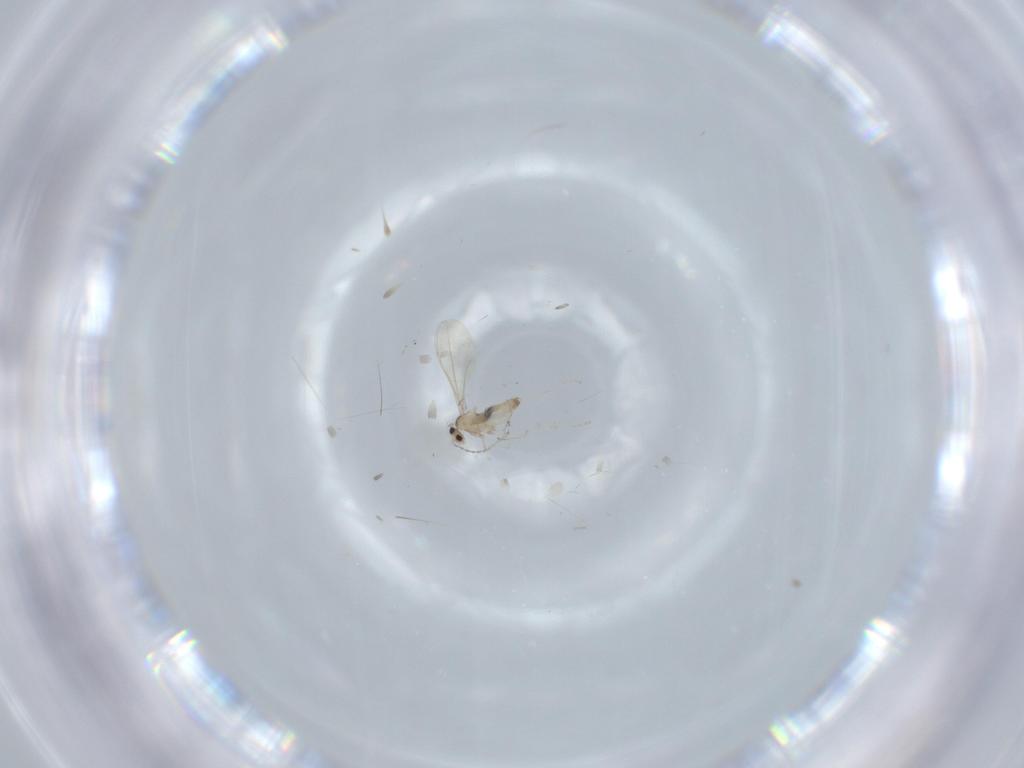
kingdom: Animalia
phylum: Arthropoda
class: Insecta
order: Diptera
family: Cecidomyiidae
